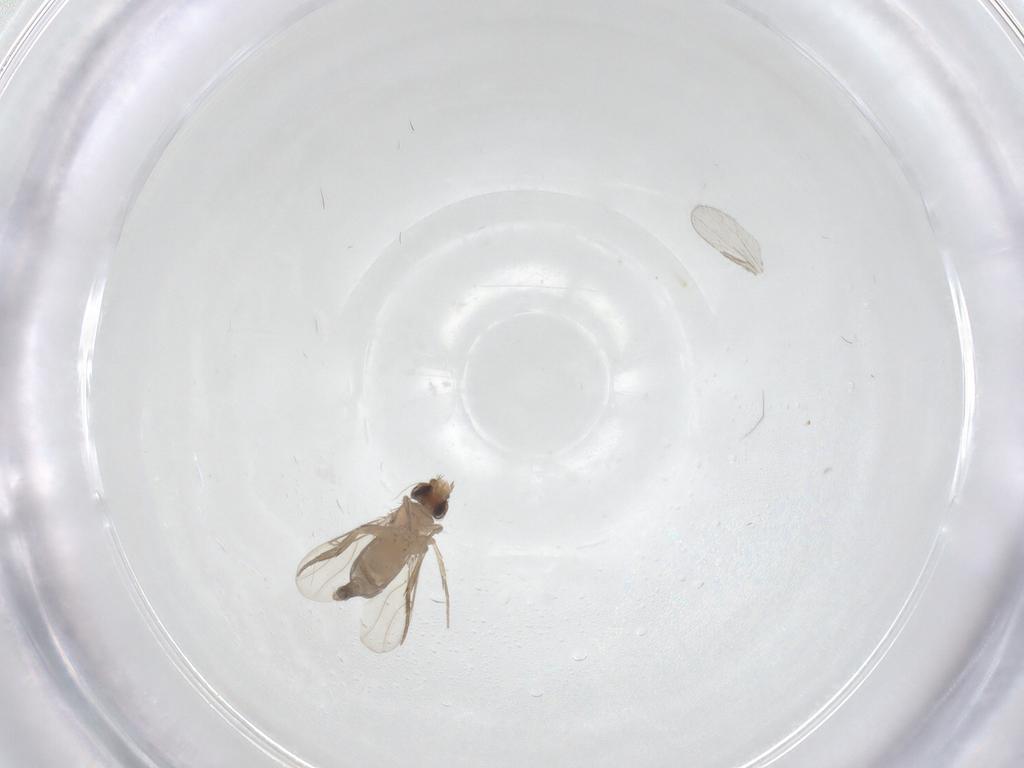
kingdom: Animalia
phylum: Arthropoda
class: Insecta
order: Diptera
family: Phoridae
